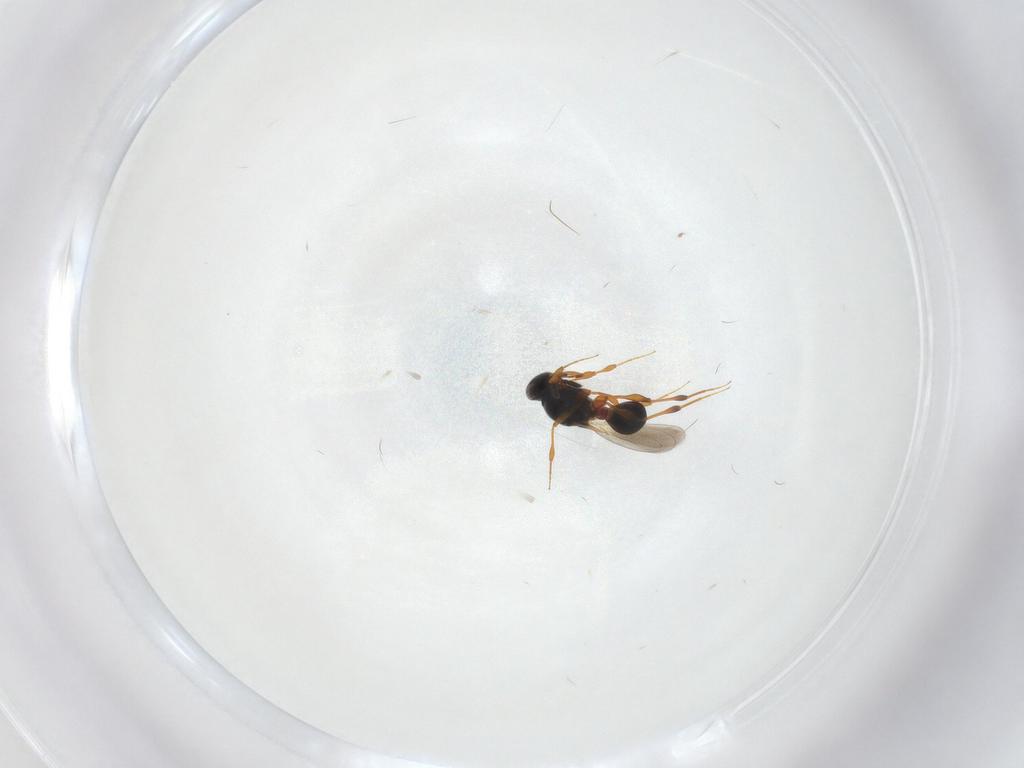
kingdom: Animalia
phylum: Arthropoda
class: Insecta
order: Hymenoptera
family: Platygastridae
